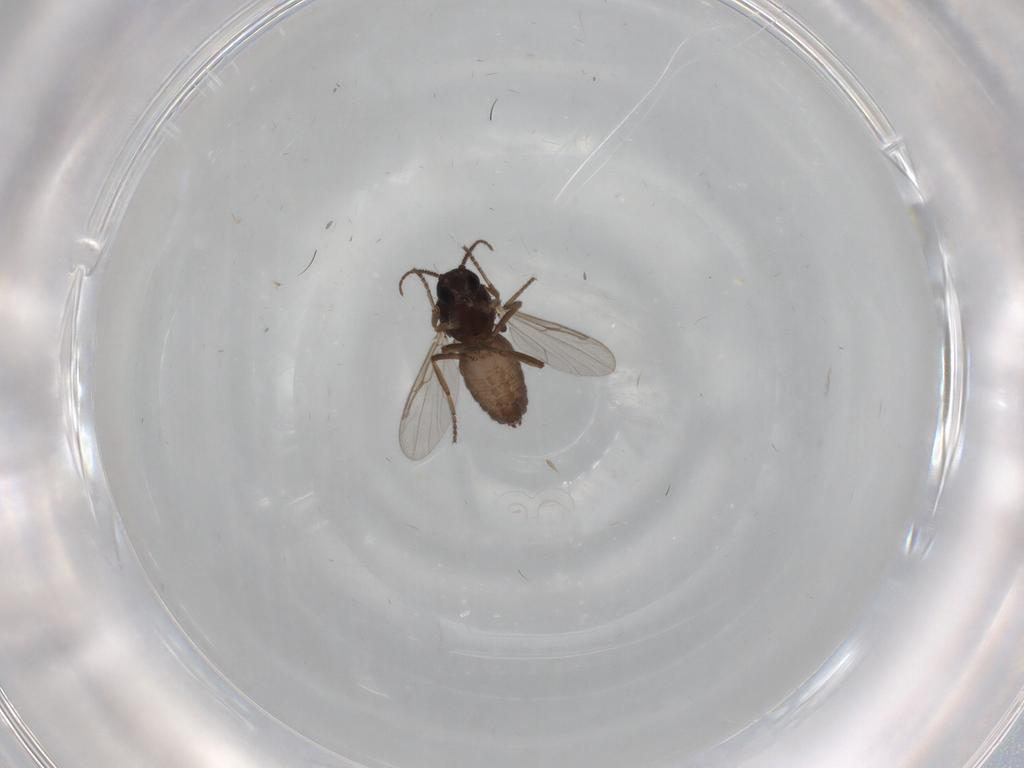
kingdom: Animalia
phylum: Arthropoda
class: Insecta
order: Diptera
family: Ceratopogonidae
